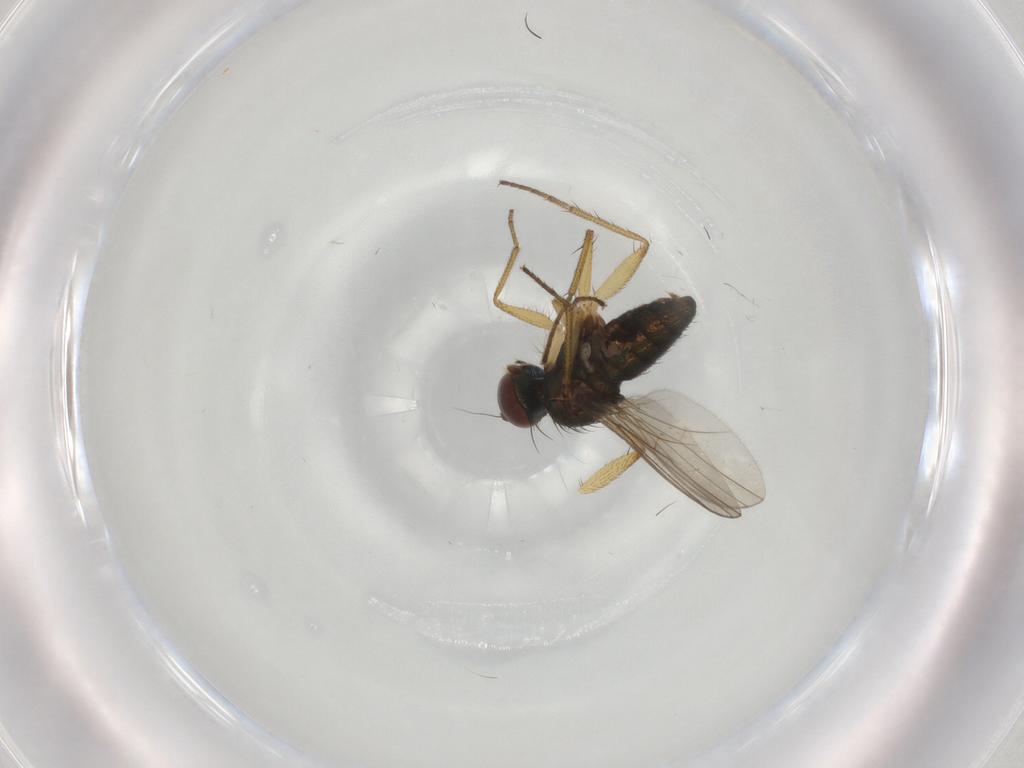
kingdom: Animalia
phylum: Arthropoda
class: Insecta
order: Diptera
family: Dolichopodidae
